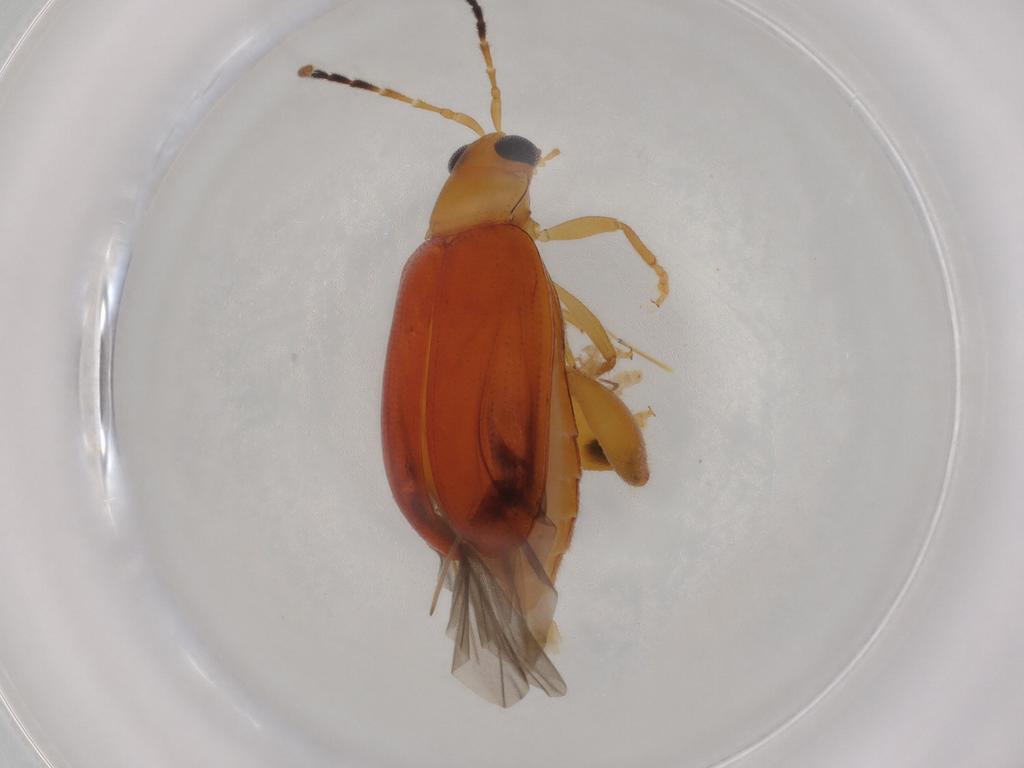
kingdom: Animalia
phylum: Arthropoda
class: Insecta
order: Coleoptera
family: Chrysomelidae
